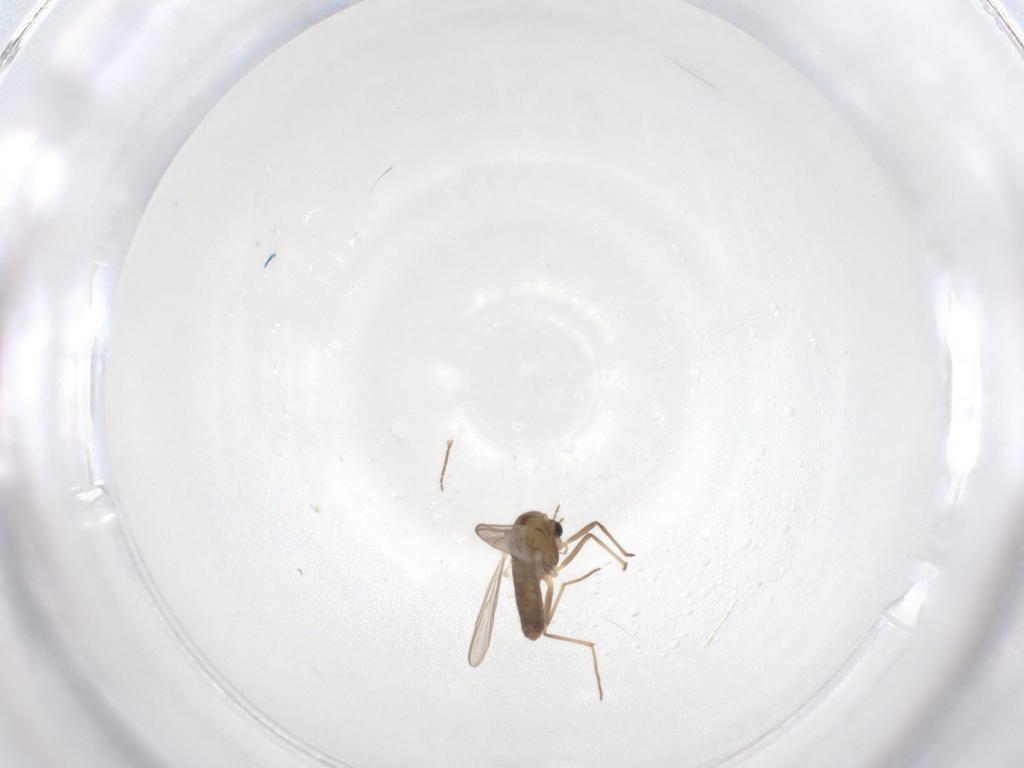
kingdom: Animalia
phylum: Arthropoda
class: Insecta
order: Diptera
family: Chironomidae
